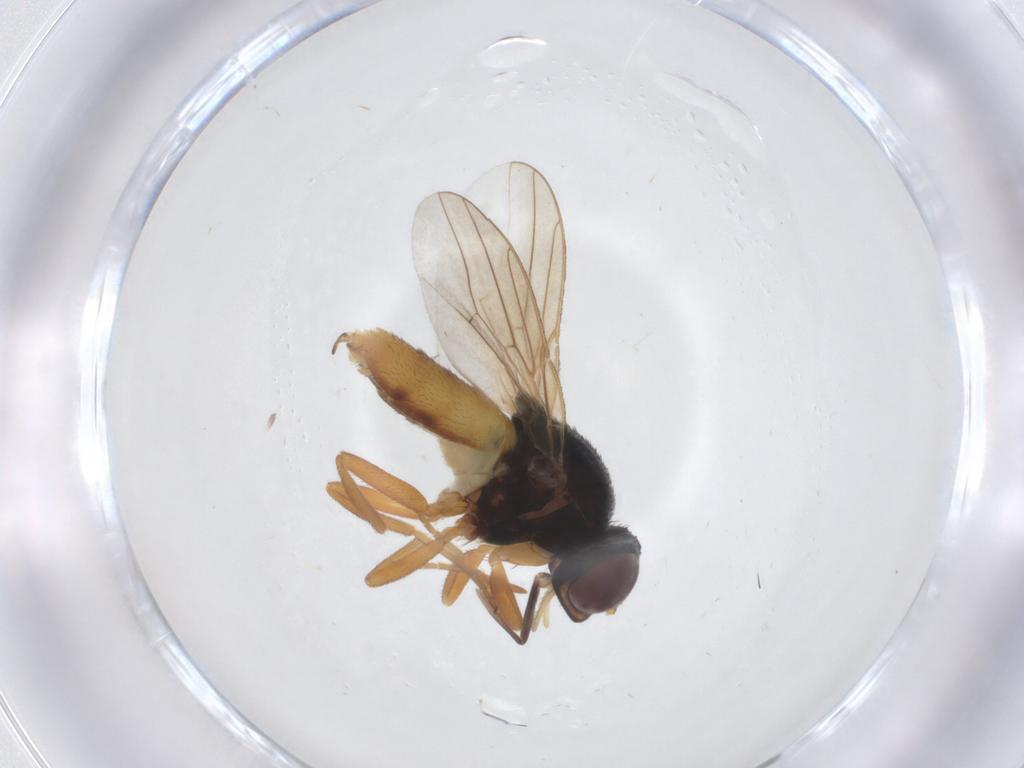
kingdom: Animalia
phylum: Arthropoda
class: Insecta
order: Diptera
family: Chloropidae
